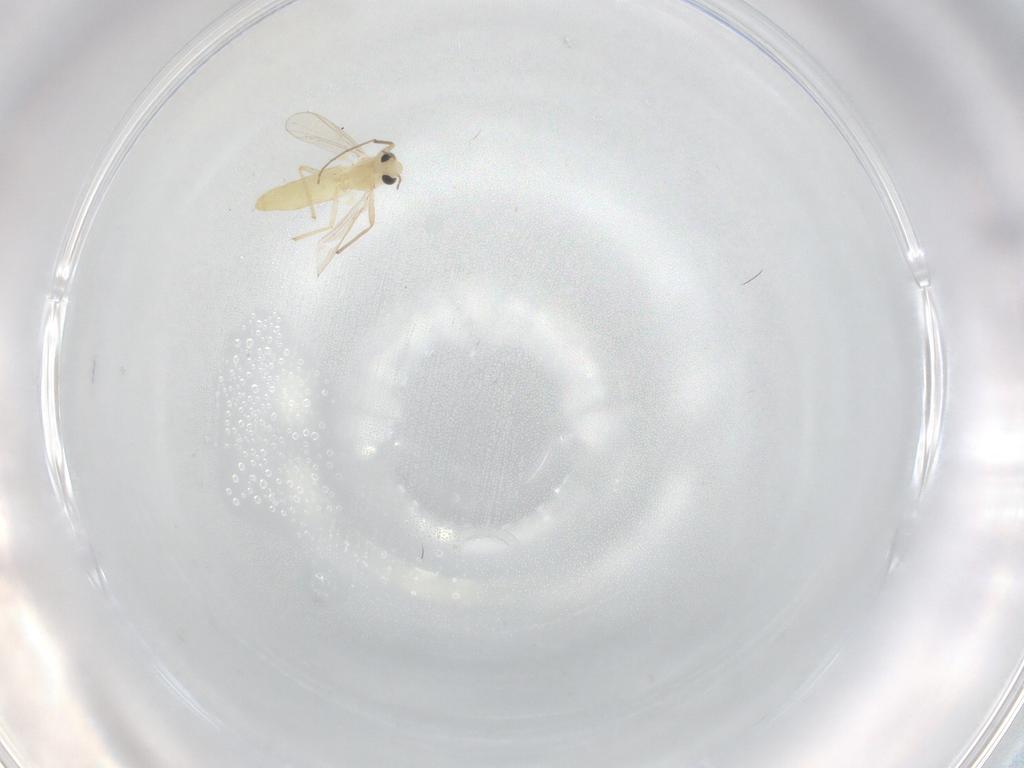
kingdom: Animalia
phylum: Arthropoda
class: Insecta
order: Diptera
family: Chironomidae
